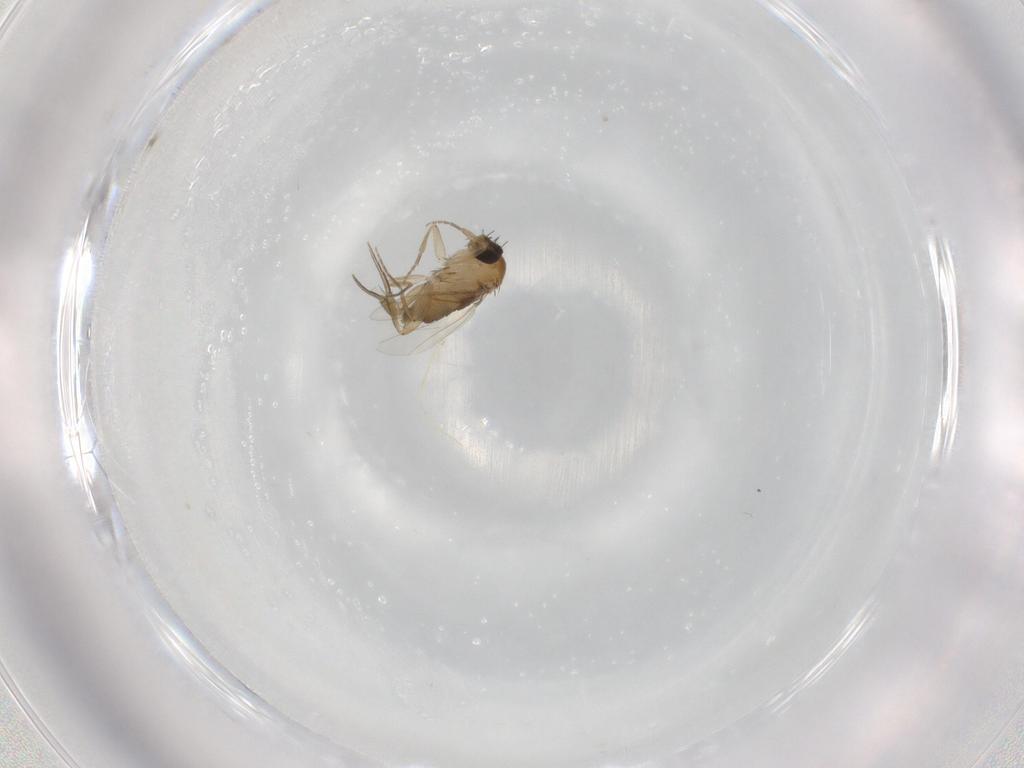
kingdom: Animalia
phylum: Arthropoda
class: Insecta
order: Diptera
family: Phoridae
